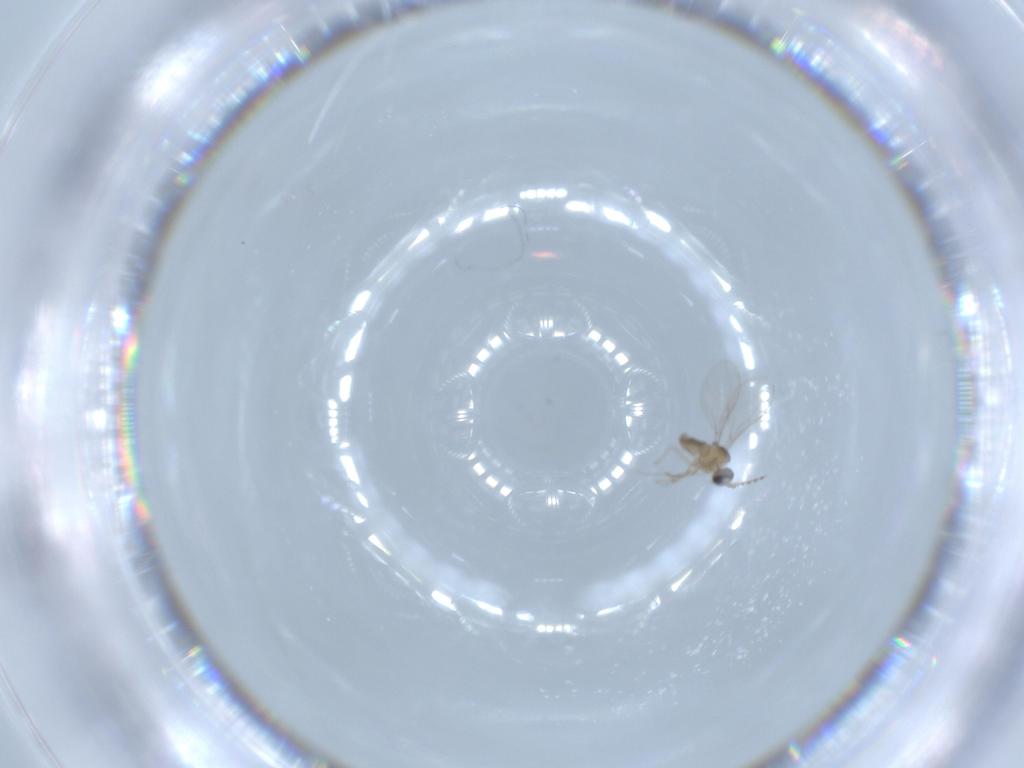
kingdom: Animalia
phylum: Arthropoda
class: Insecta
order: Diptera
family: Cecidomyiidae
